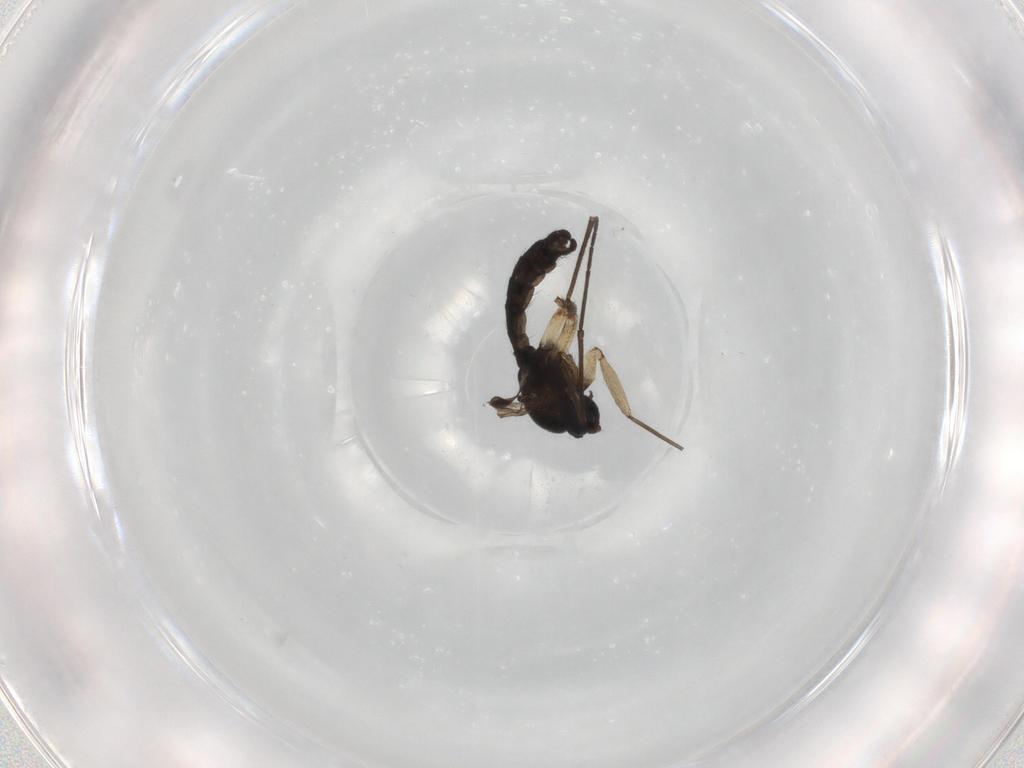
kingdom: Animalia
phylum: Arthropoda
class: Insecta
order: Diptera
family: Sciaridae
